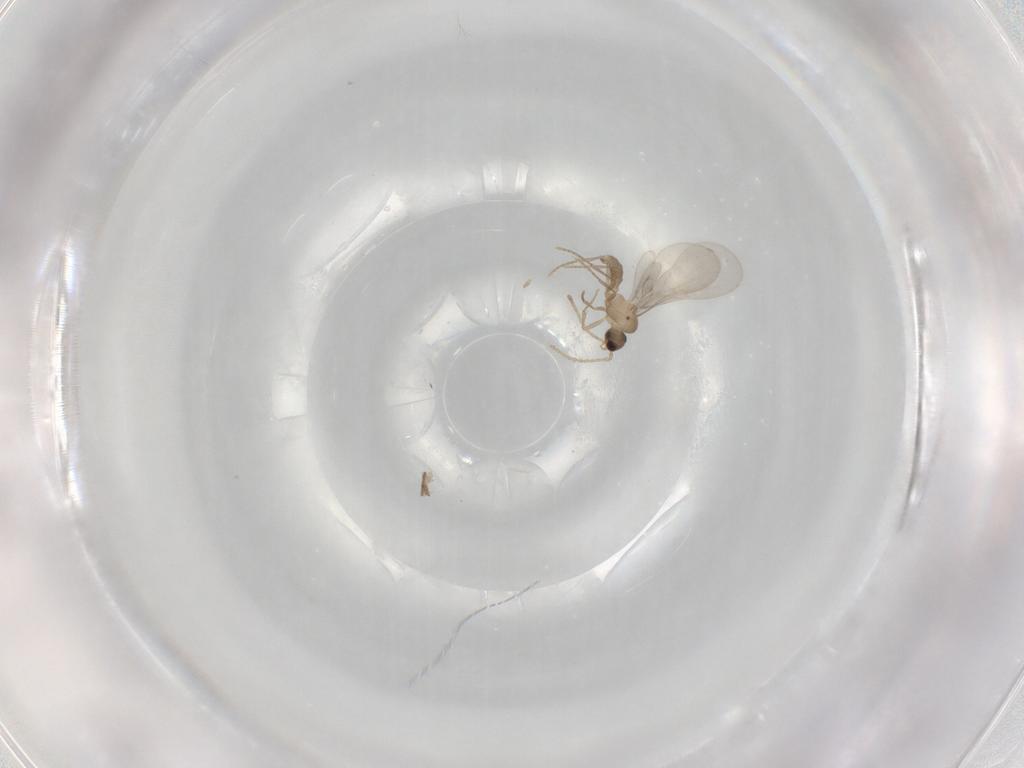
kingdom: Animalia
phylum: Arthropoda
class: Insecta
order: Hymenoptera
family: Formicidae
